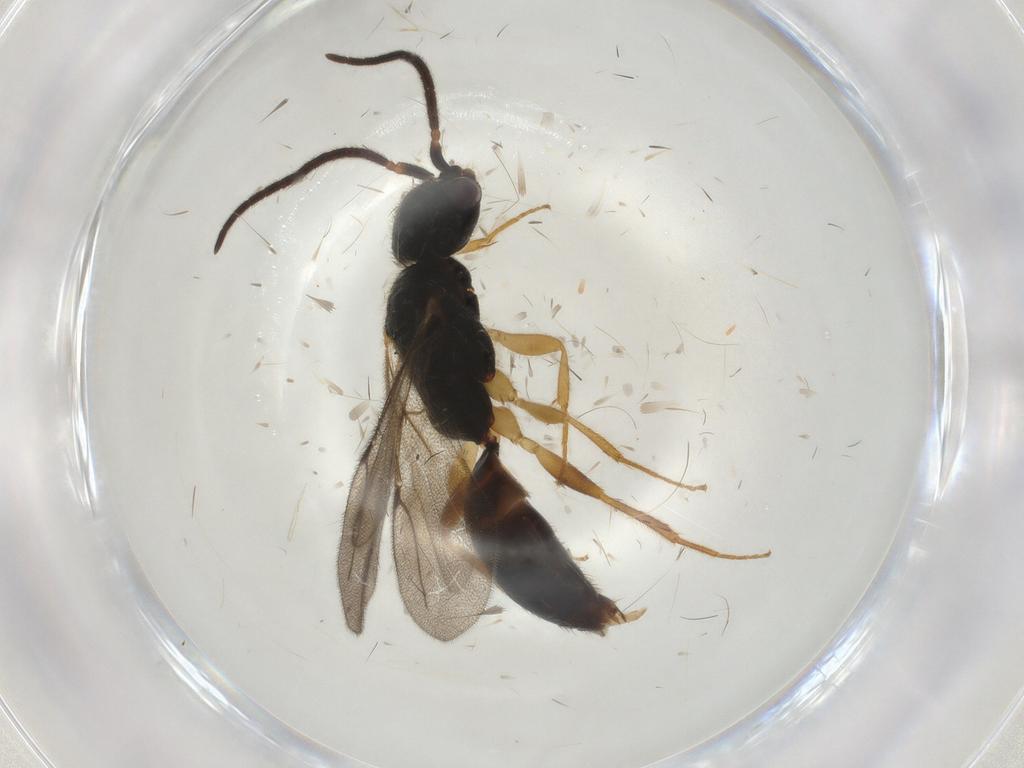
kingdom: Animalia
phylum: Arthropoda
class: Insecta
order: Hymenoptera
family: Bethylidae
